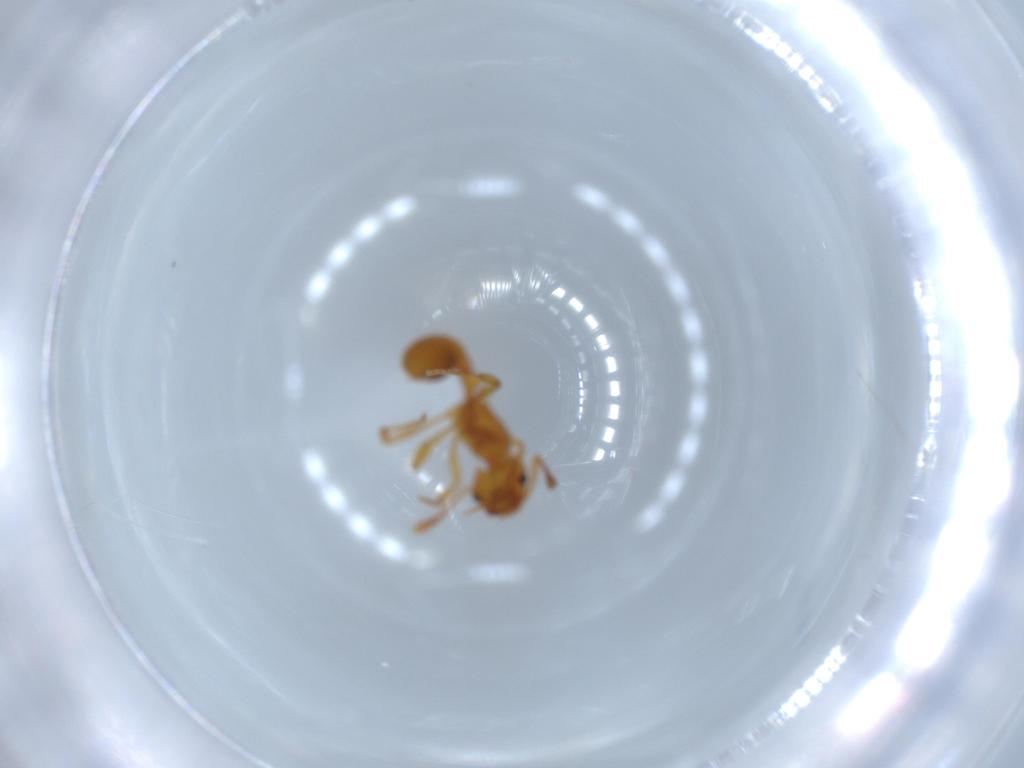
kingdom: Animalia
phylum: Arthropoda
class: Insecta
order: Hymenoptera
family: Formicidae
